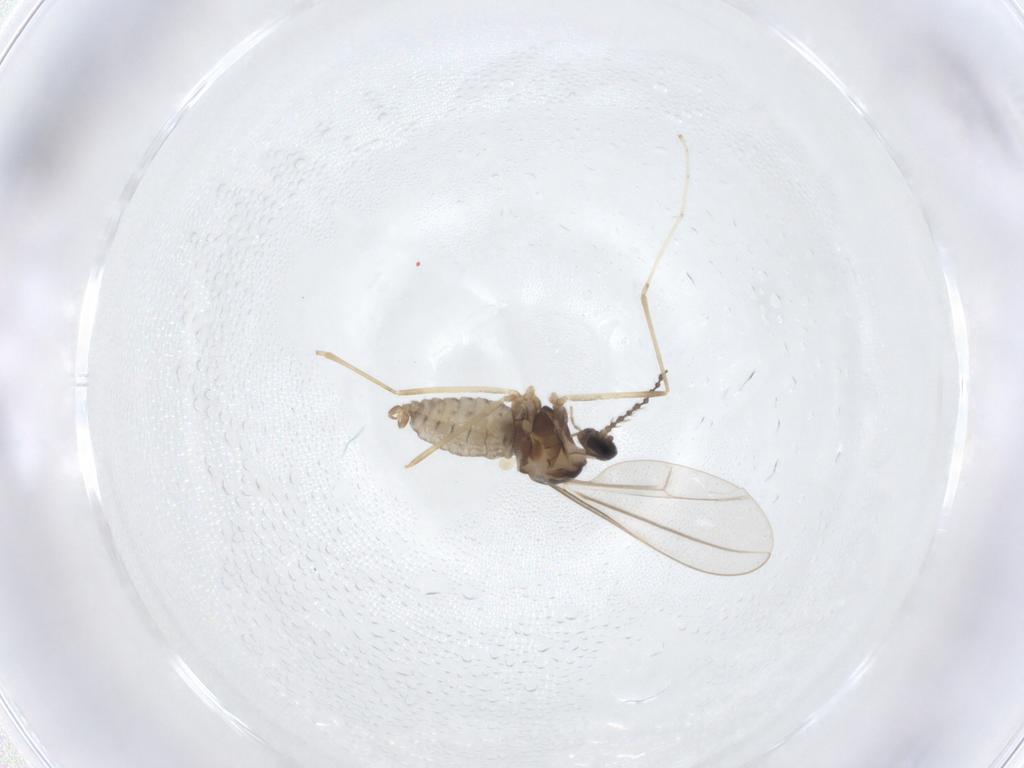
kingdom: Animalia
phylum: Arthropoda
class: Insecta
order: Diptera
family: Cecidomyiidae
